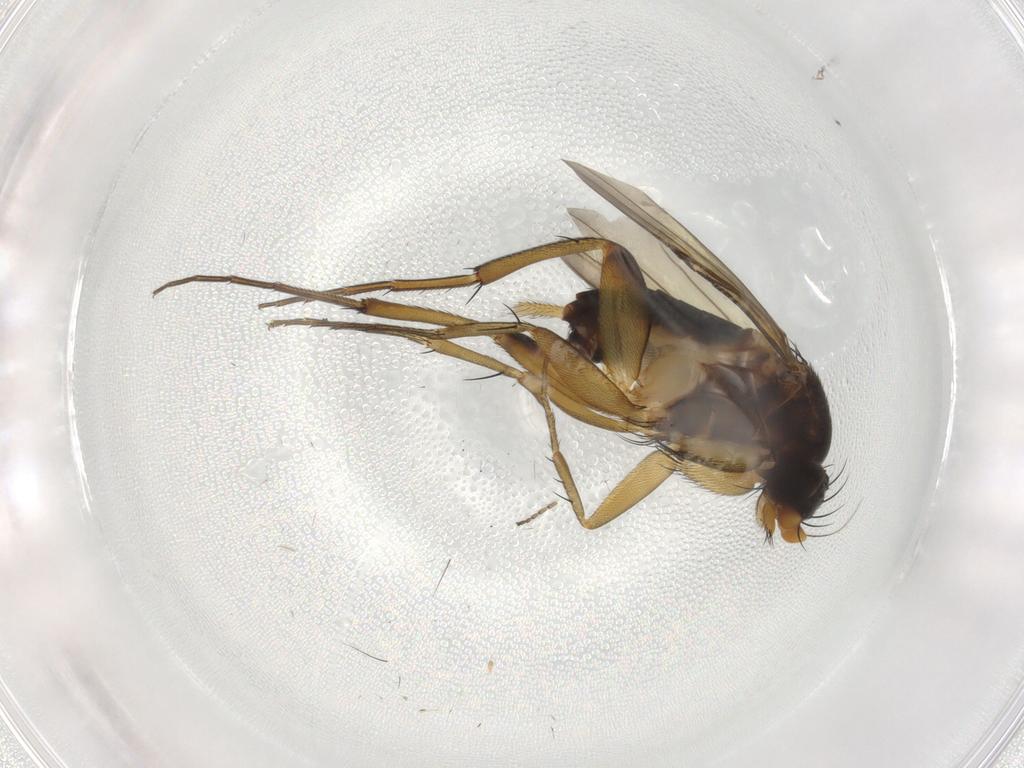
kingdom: Animalia
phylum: Arthropoda
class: Insecta
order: Diptera
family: Phoridae
